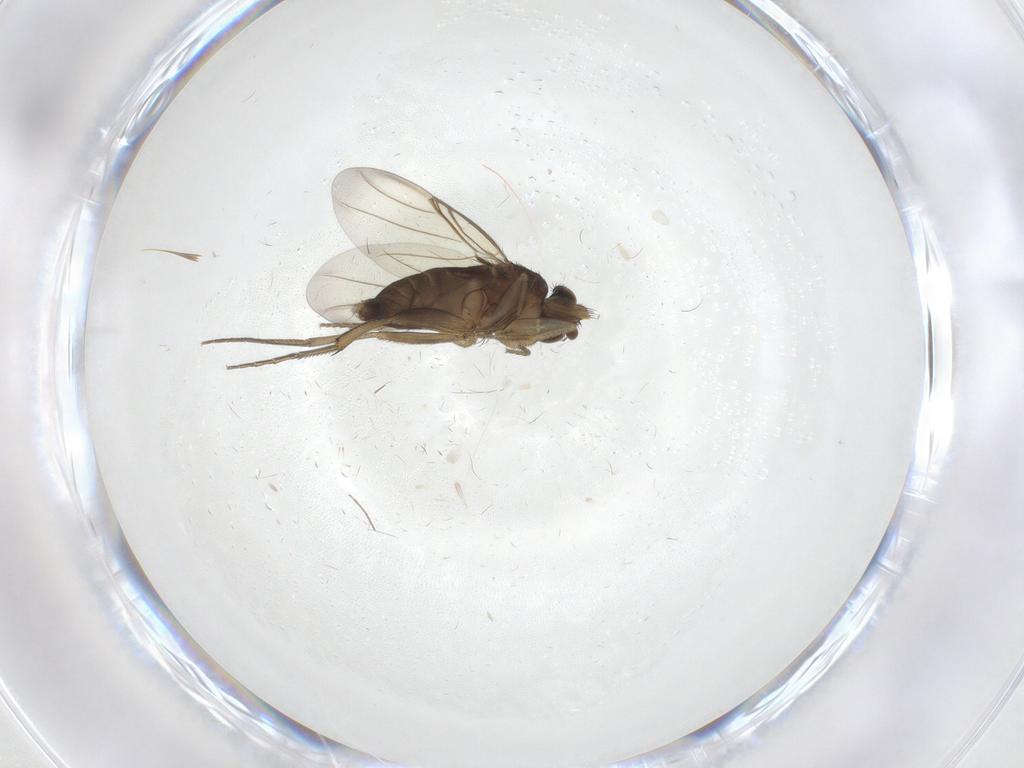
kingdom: Animalia
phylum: Arthropoda
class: Insecta
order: Diptera
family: Phoridae
